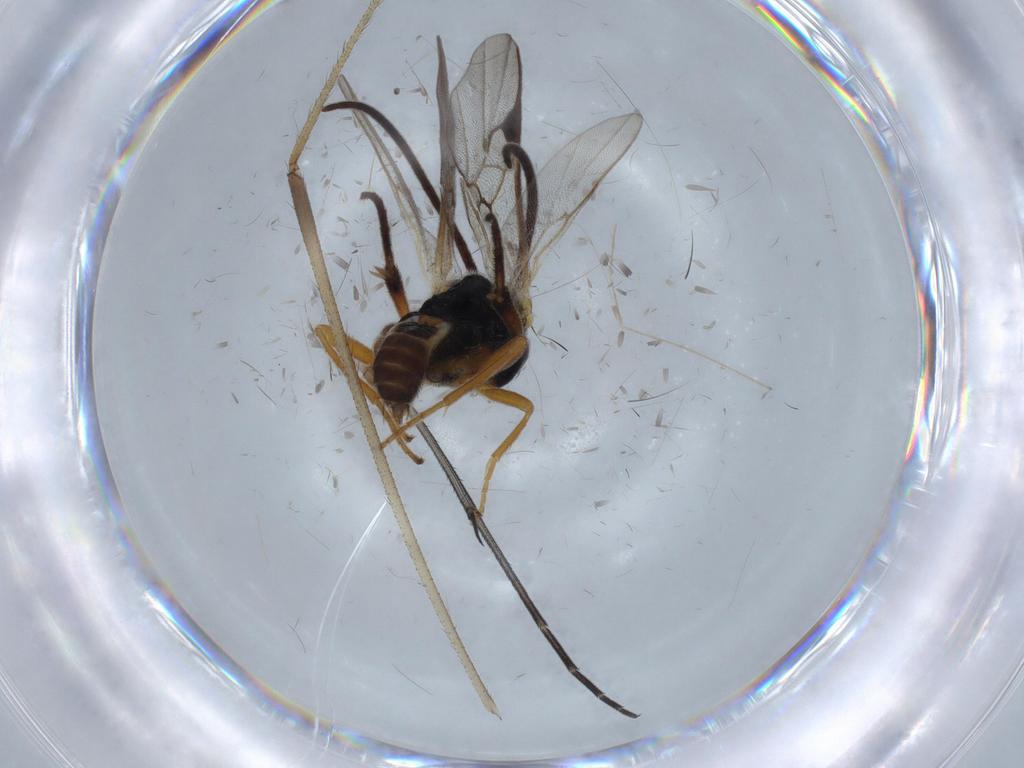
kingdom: Animalia
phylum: Arthropoda
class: Insecta
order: Hymenoptera
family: Braconidae
